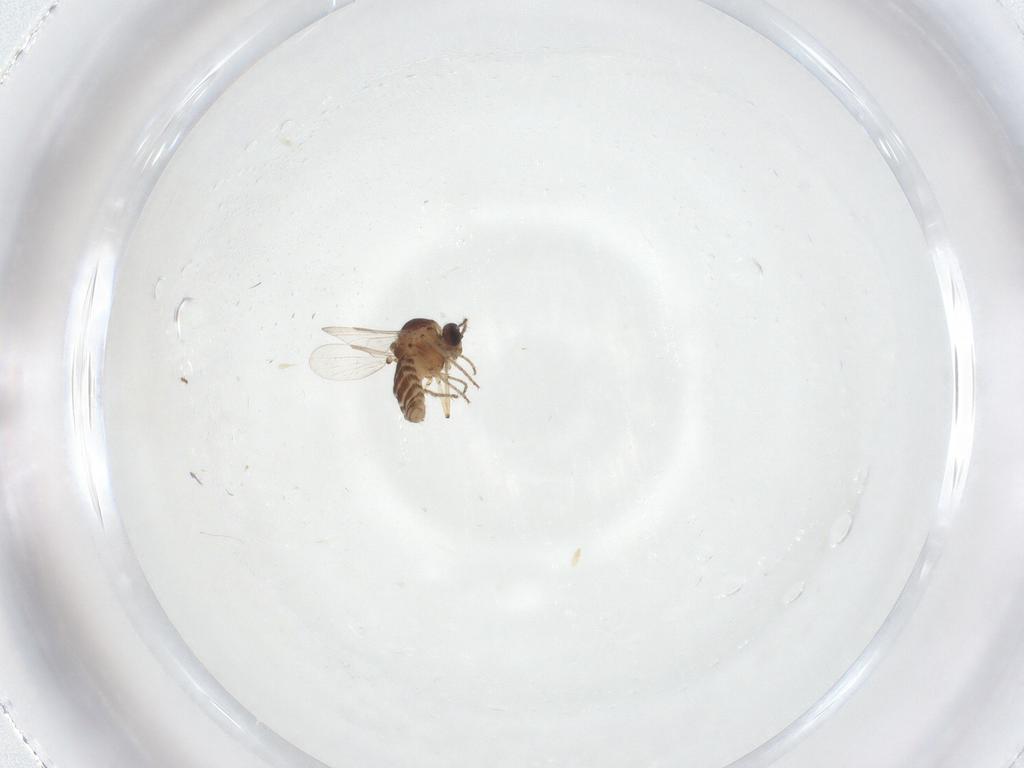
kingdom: Animalia
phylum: Arthropoda
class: Insecta
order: Diptera
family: Ceratopogonidae
